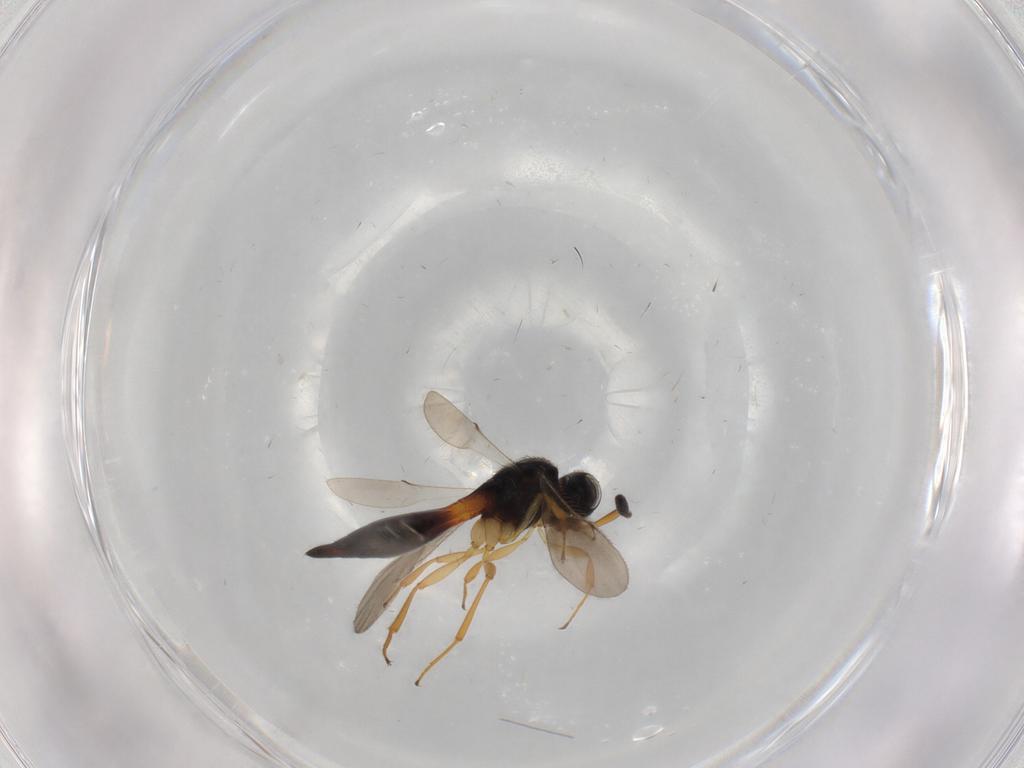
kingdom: Animalia
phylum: Arthropoda
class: Insecta
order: Hymenoptera
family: Scelionidae
